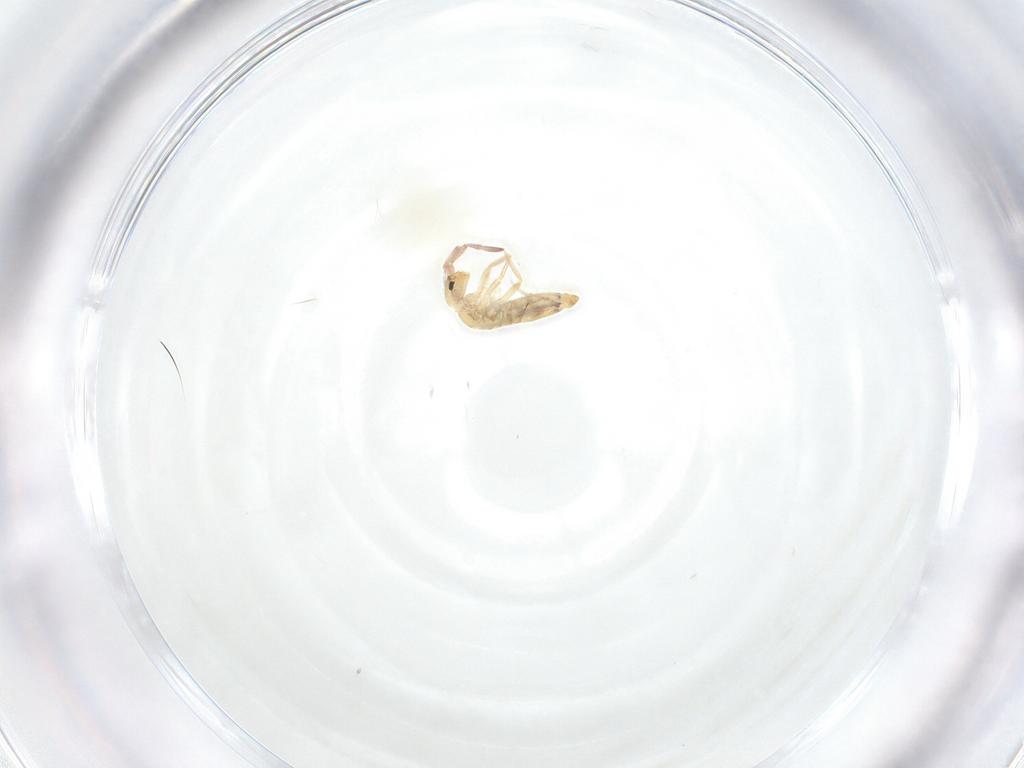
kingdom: Animalia
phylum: Arthropoda
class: Collembola
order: Entomobryomorpha
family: Entomobryidae
